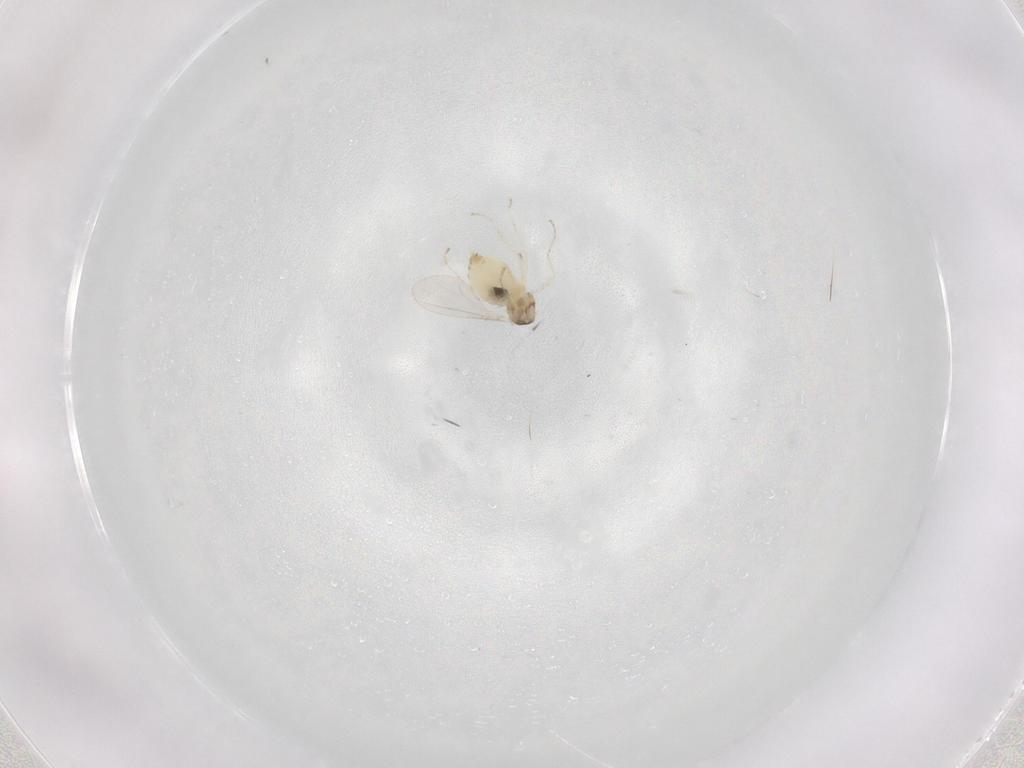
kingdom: Animalia
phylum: Arthropoda
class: Insecta
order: Diptera
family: Cecidomyiidae
